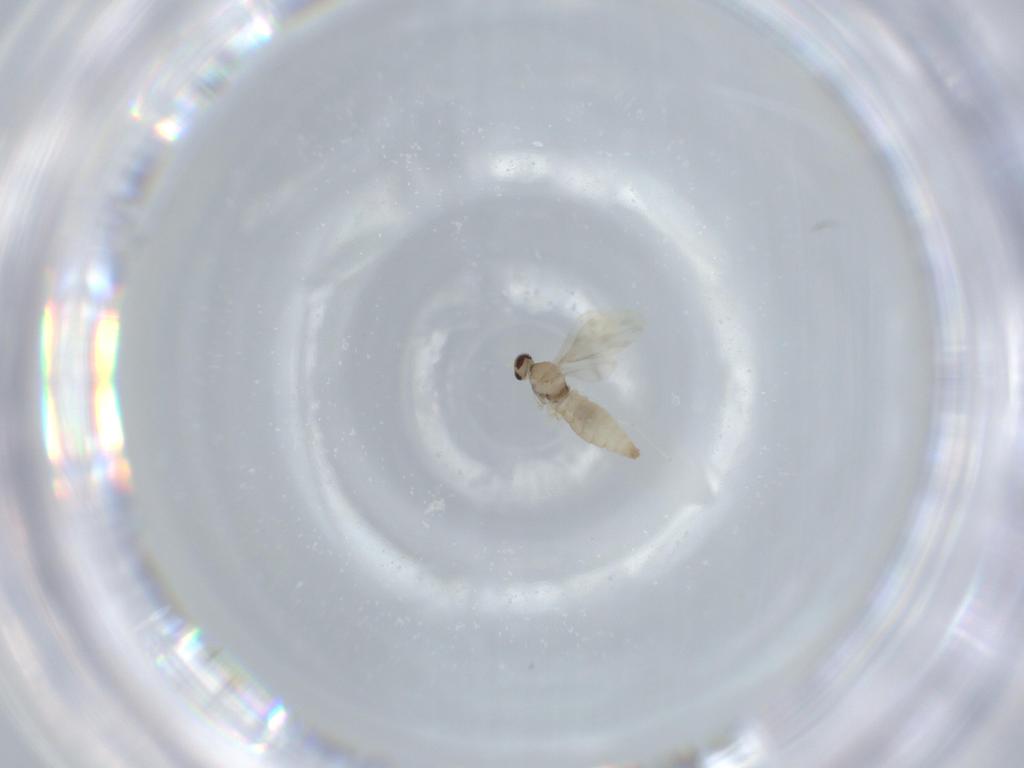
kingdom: Animalia
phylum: Arthropoda
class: Insecta
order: Diptera
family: Cecidomyiidae
